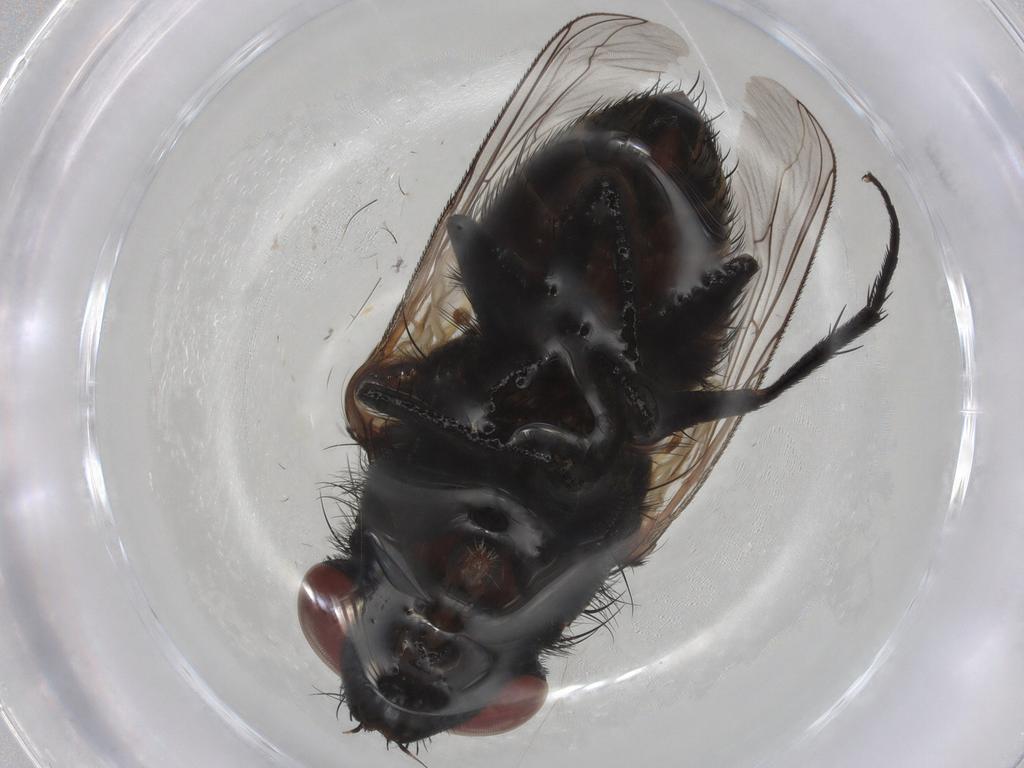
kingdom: Animalia
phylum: Arthropoda
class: Insecta
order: Diptera
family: Sarcophagidae
